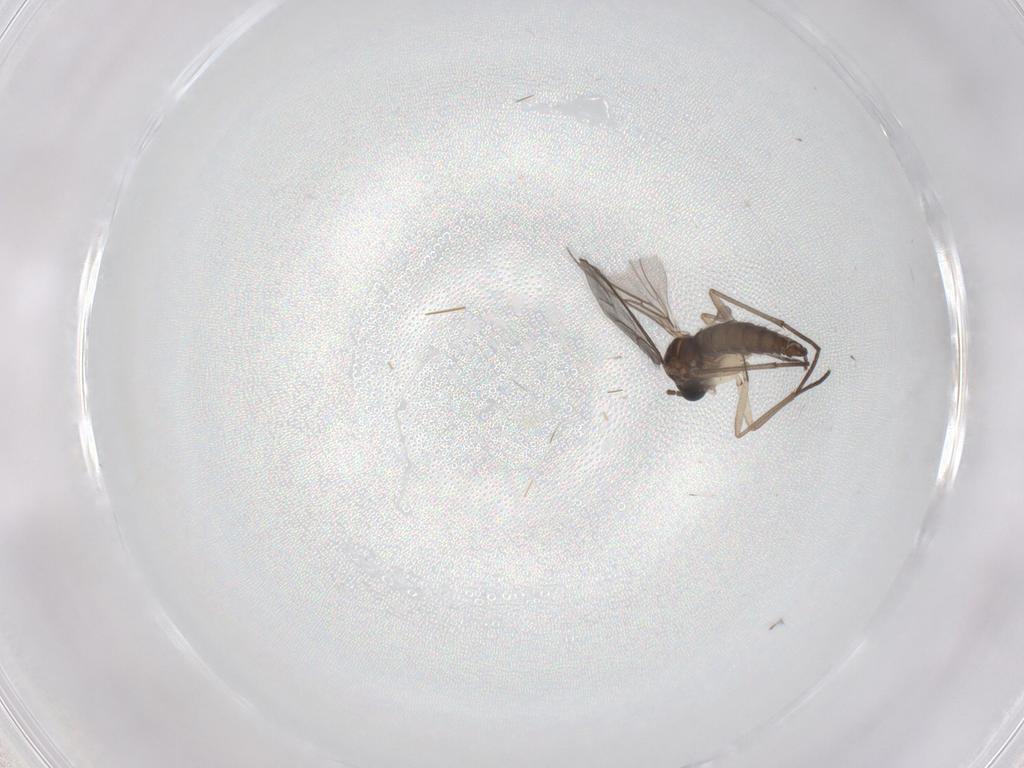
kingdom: Animalia
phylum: Arthropoda
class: Insecta
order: Diptera
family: Sciaridae
